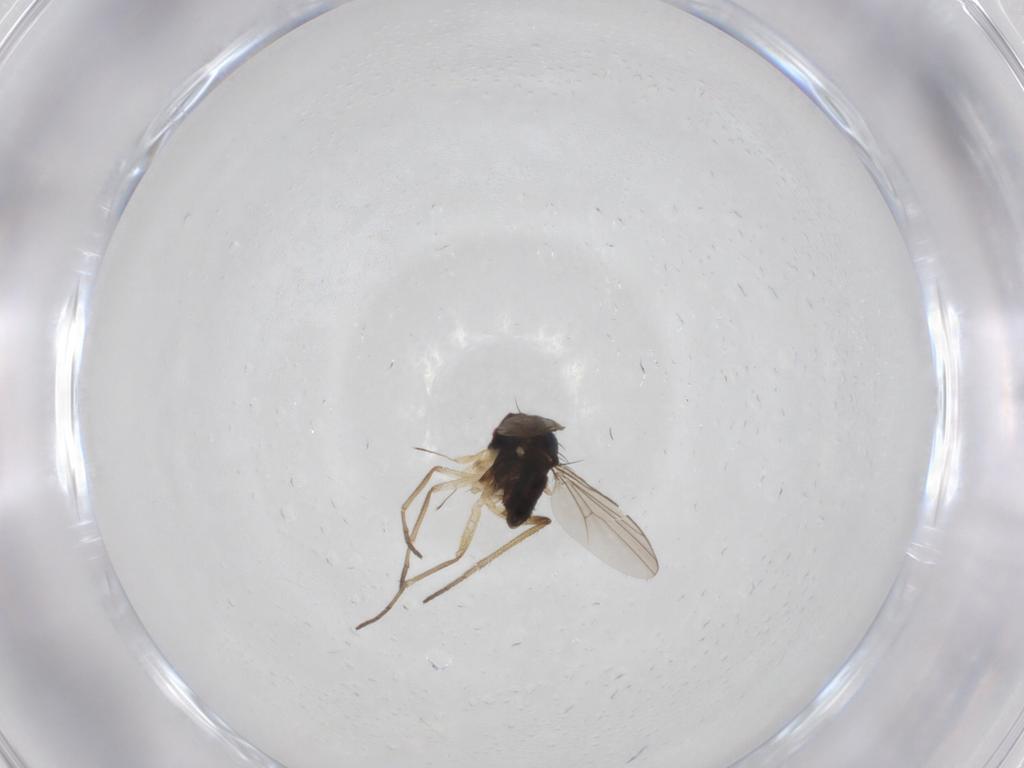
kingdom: Animalia
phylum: Arthropoda
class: Insecta
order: Diptera
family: Dolichopodidae
